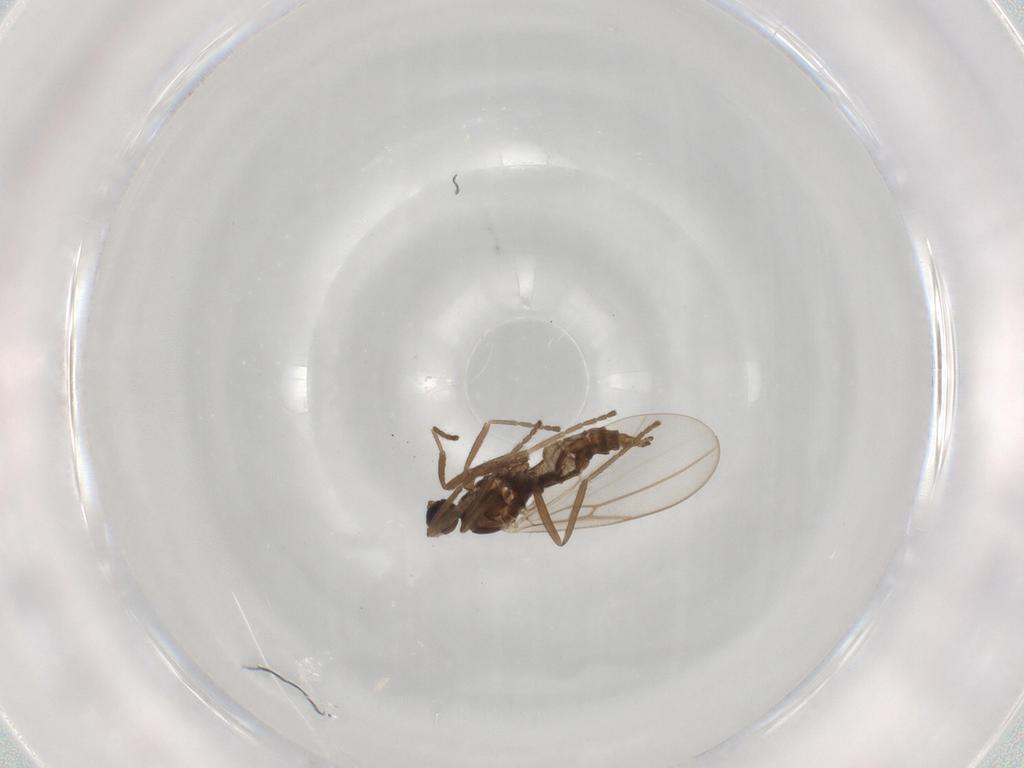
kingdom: Animalia
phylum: Arthropoda
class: Insecta
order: Diptera
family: Cecidomyiidae
